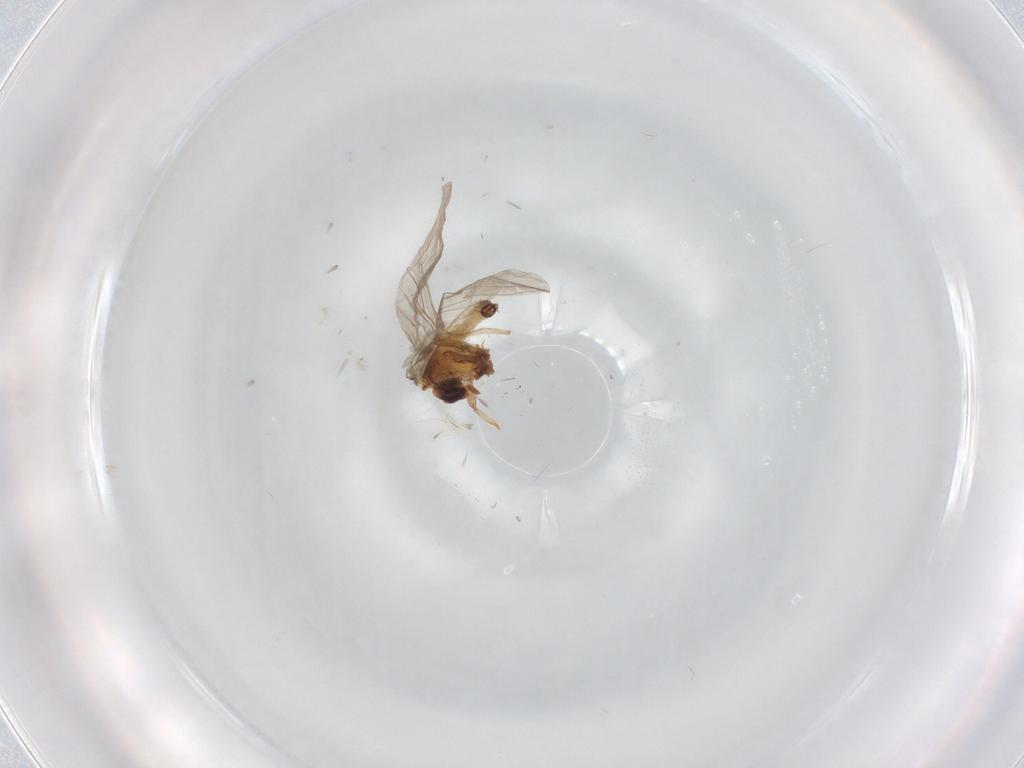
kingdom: Animalia
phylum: Arthropoda
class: Insecta
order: Neuroptera
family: Coniopterygidae
